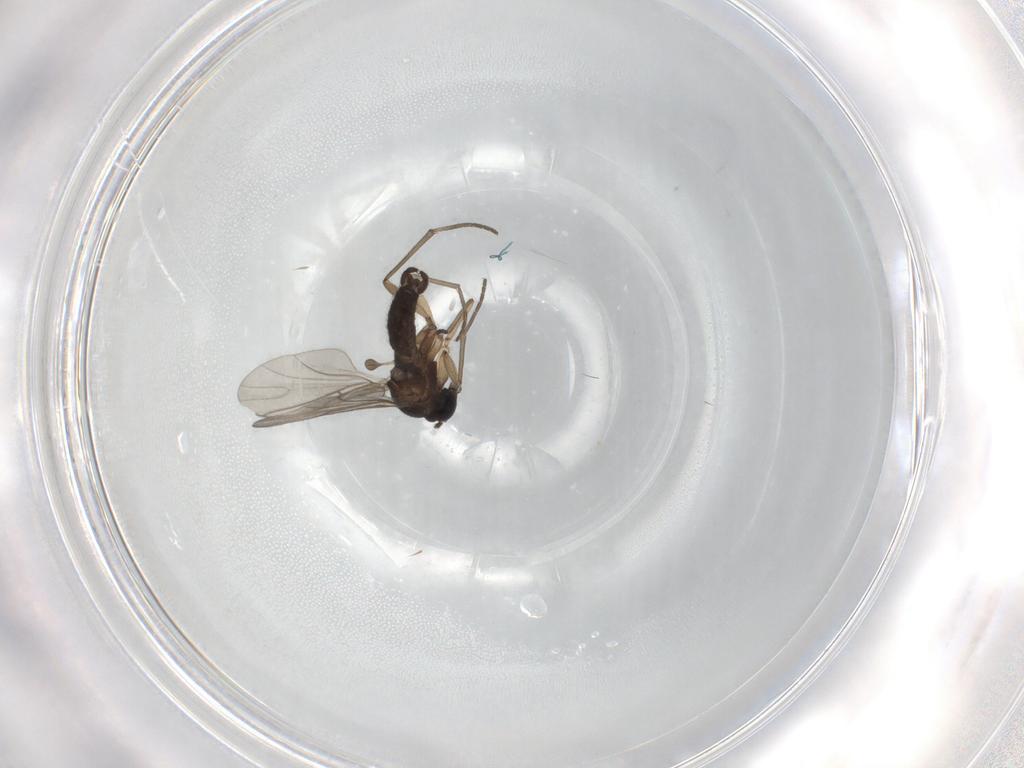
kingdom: Animalia
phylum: Arthropoda
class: Insecta
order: Diptera
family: Sciaridae
